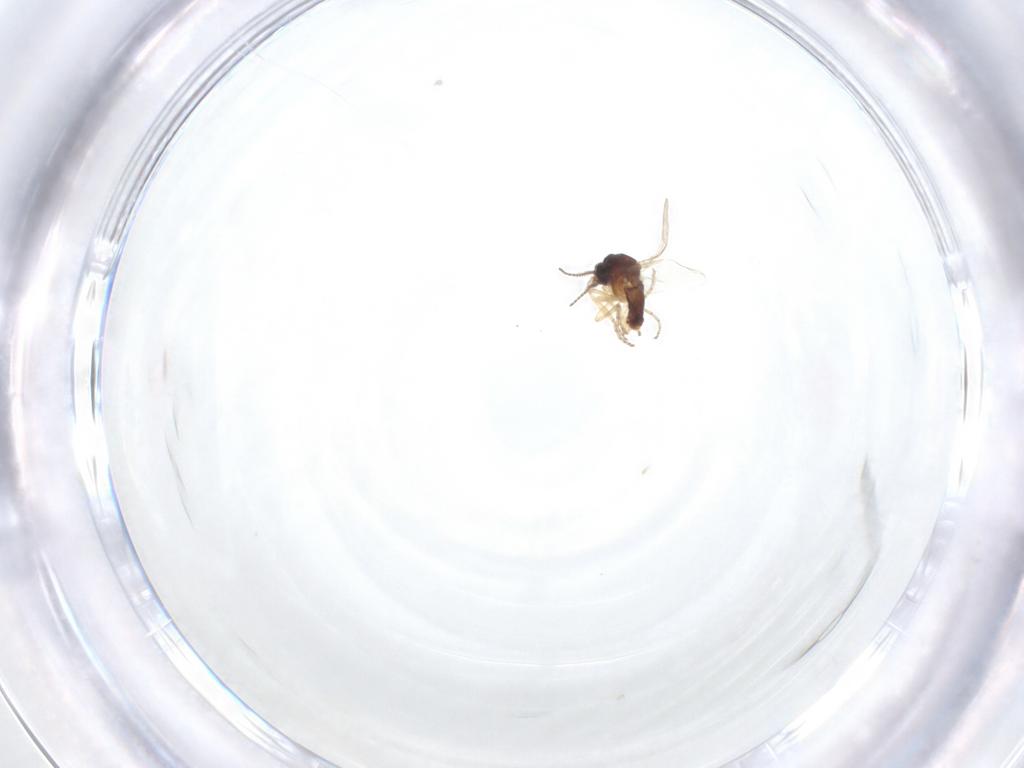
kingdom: Animalia
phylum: Arthropoda
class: Insecta
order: Diptera
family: Ceratopogonidae
